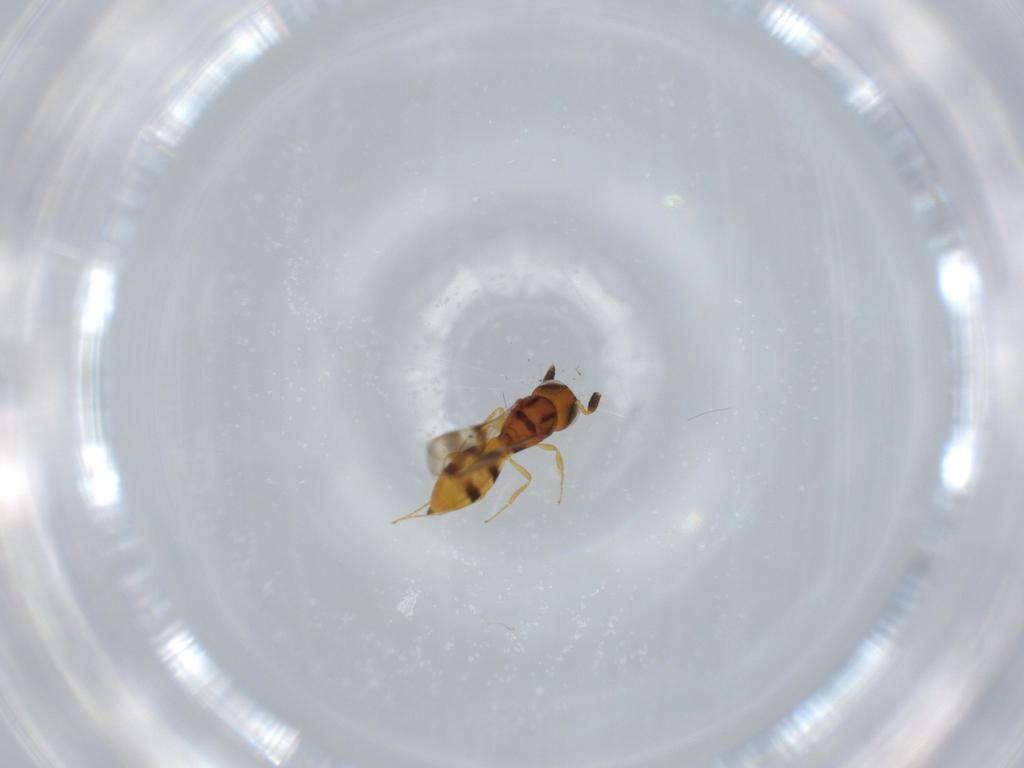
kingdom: Animalia
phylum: Arthropoda
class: Insecta
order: Hymenoptera
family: Scelionidae
